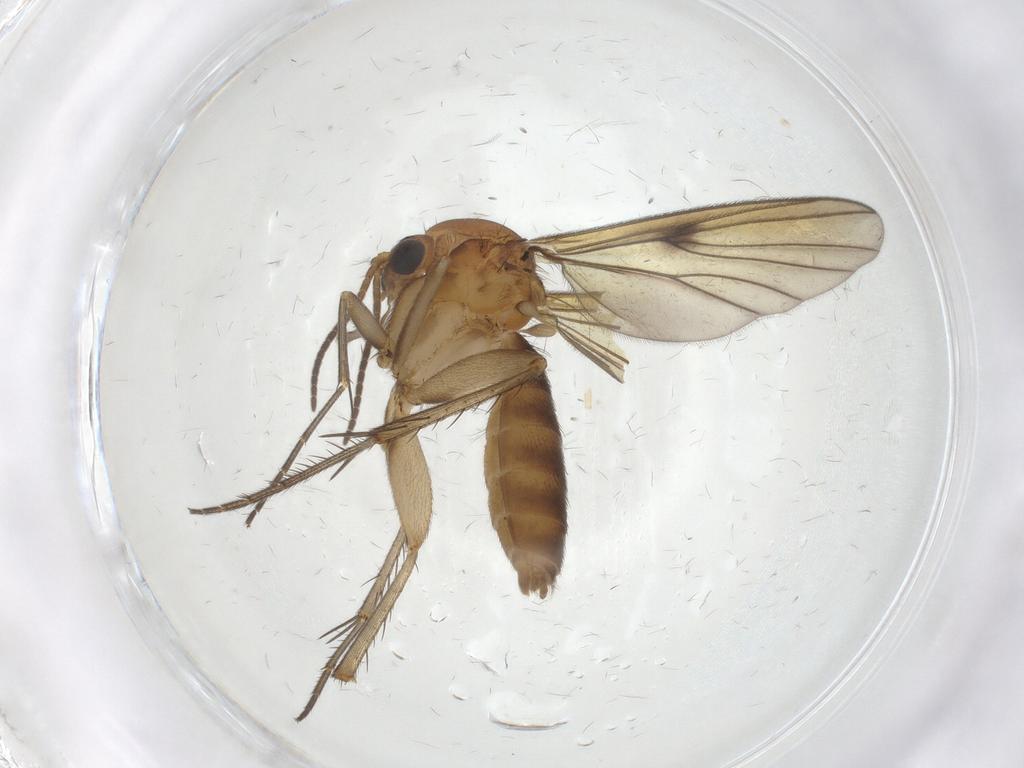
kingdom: Animalia
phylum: Arthropoda
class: Insecta
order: Diptera
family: Mycetophilidae
